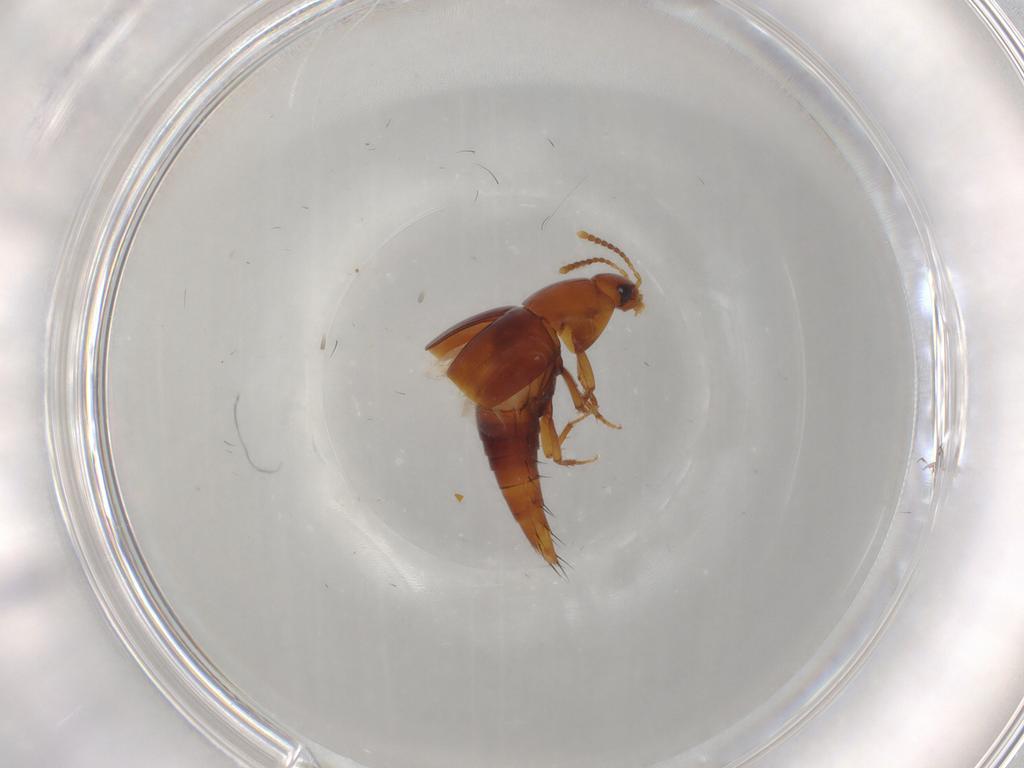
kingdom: Animalia
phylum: Arthropoda
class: Insecta
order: Coleoptera
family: Staphylinidae
